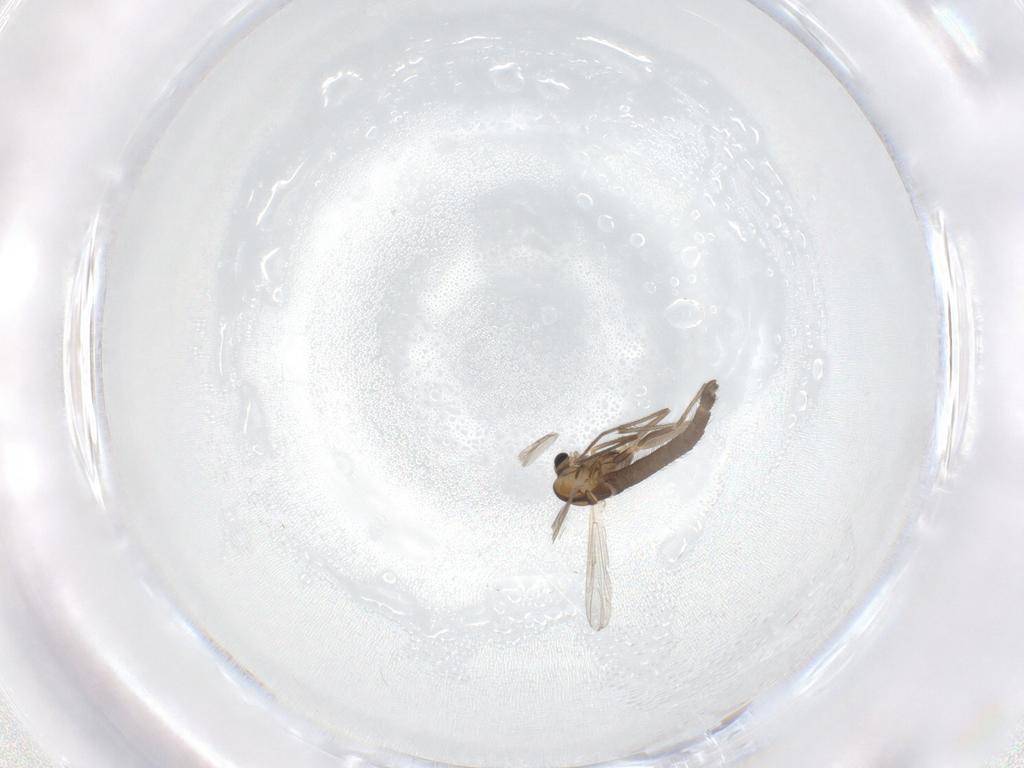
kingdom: Animalia
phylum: Arthropoda
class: Insecta
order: Diptera
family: Chironomidae
